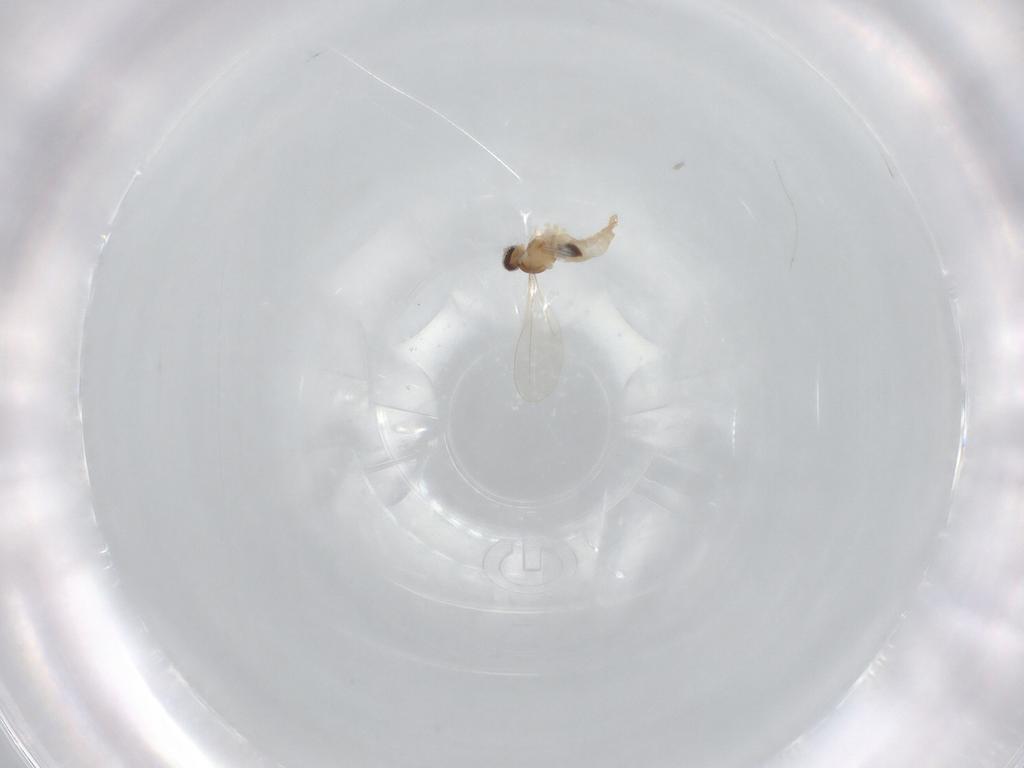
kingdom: Animalia
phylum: Arthropoda
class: Insecta
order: Diptera
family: Cecidomyiidae
